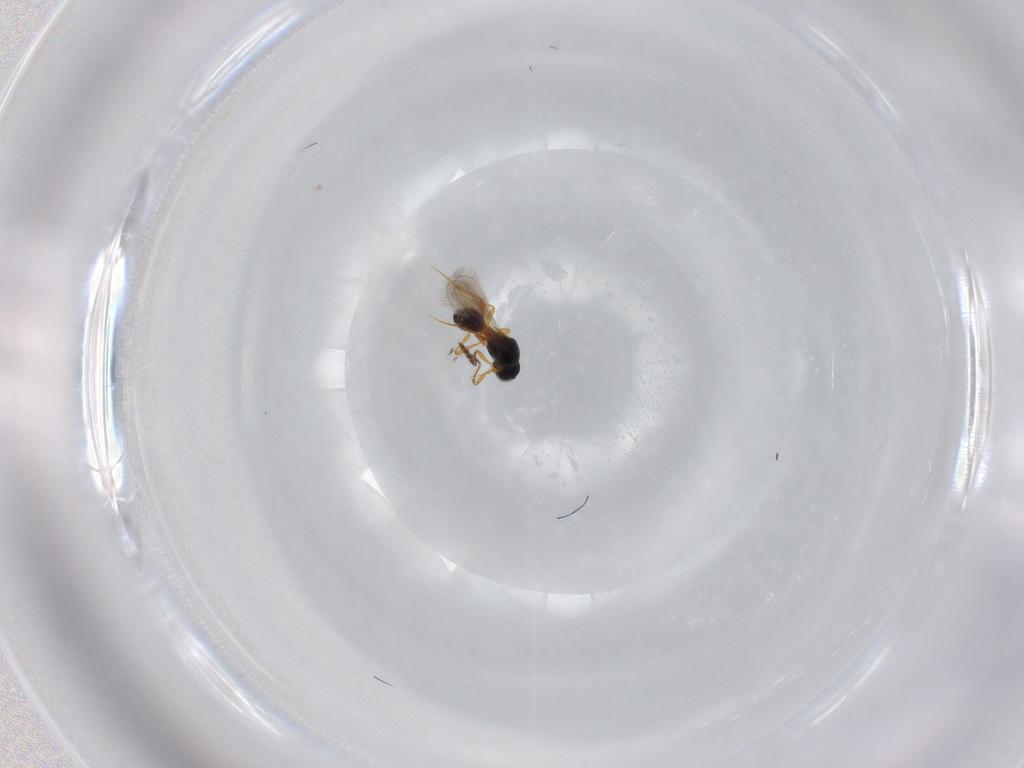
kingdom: Animalia
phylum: Arthropoda
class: Insecta
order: Hymenoptera
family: Platygastridae
